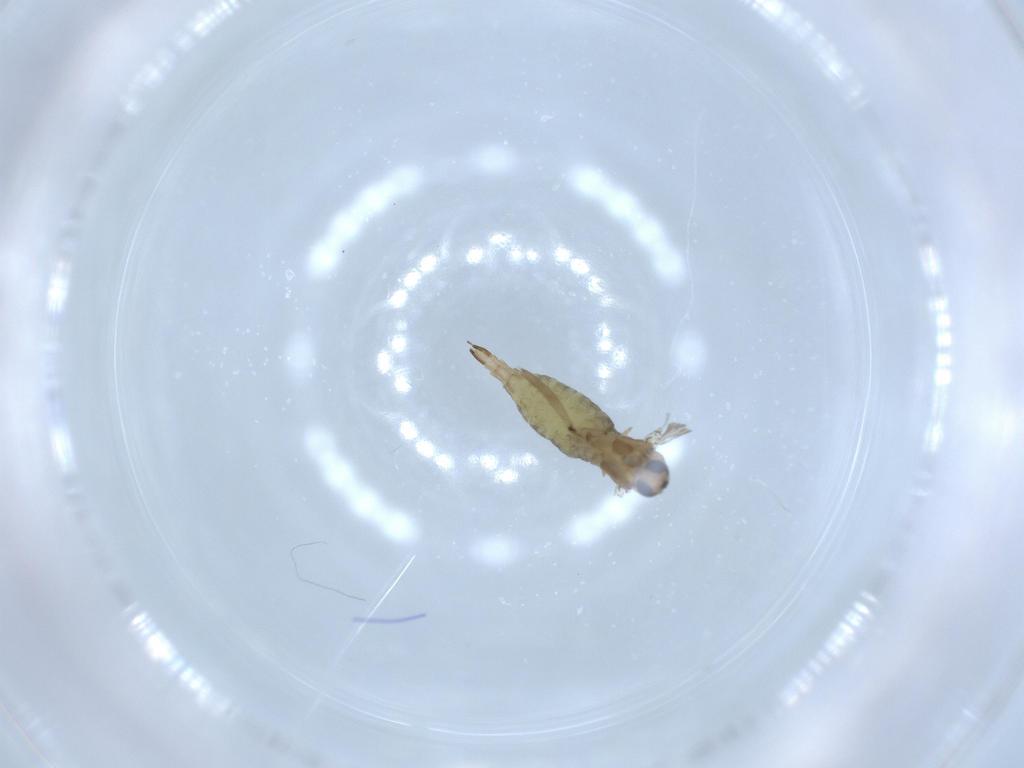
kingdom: Animalia
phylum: Arthropoda
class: Insecta
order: Diptera
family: Sciaridae
